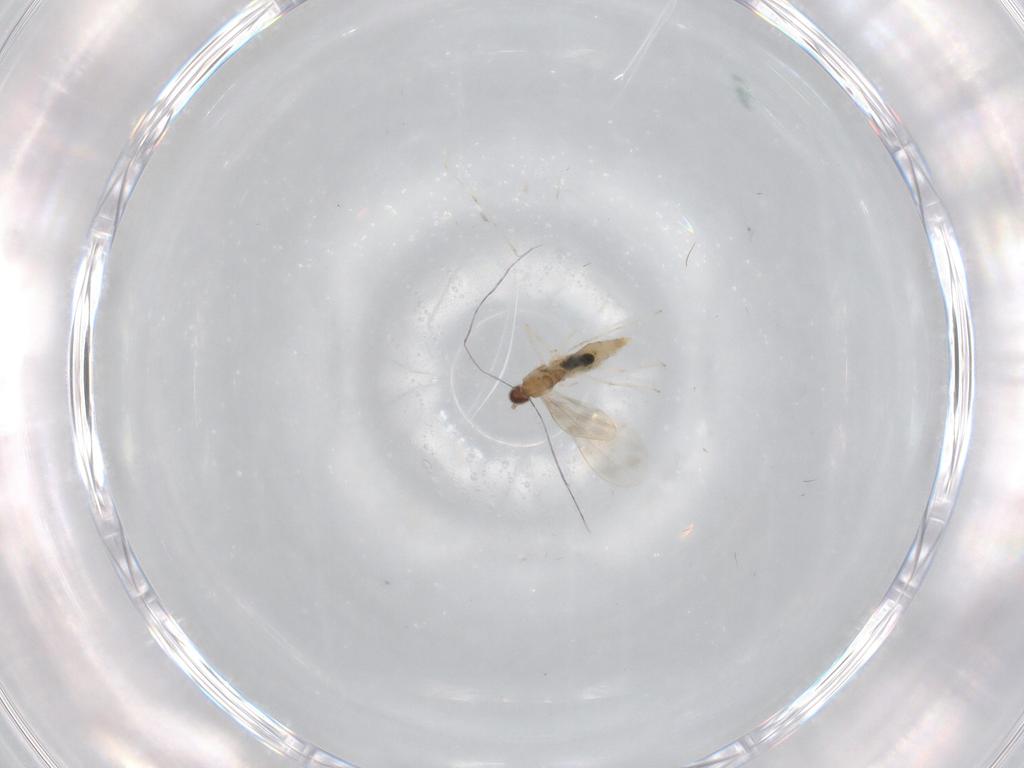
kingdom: Animalia
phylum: Arthropoda
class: Insecta
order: Diptera
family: Cecidomyiidae
